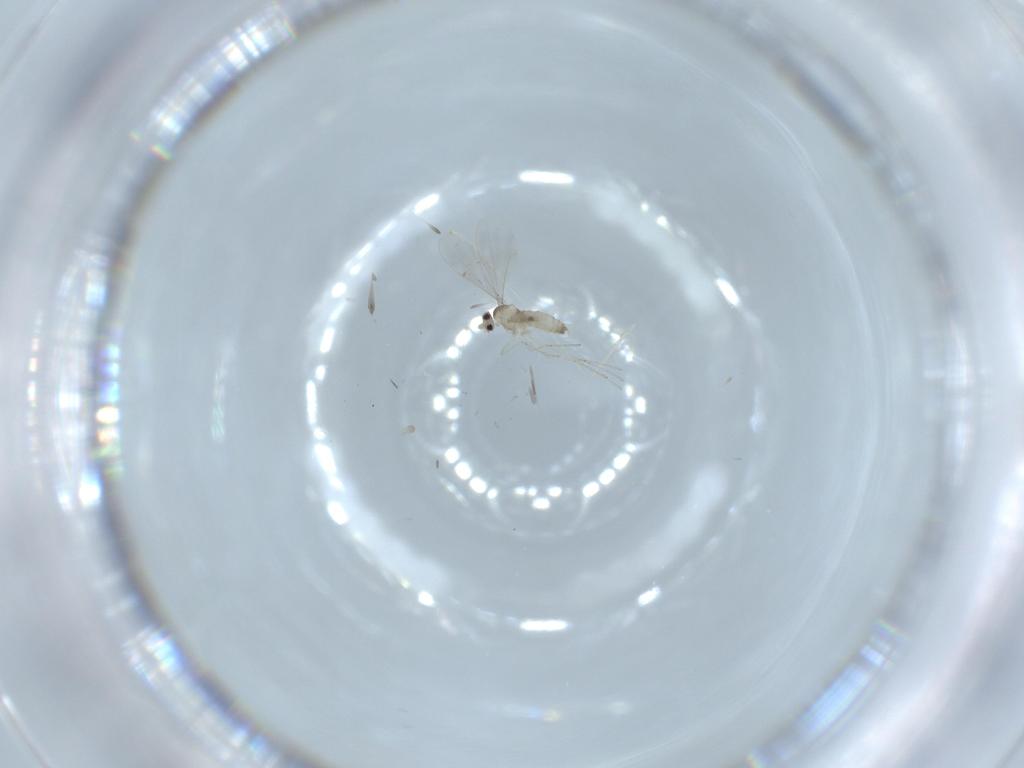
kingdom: Animalia
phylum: Arthropoda
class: Insecta
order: Diptera
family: Cecidomyiidae
